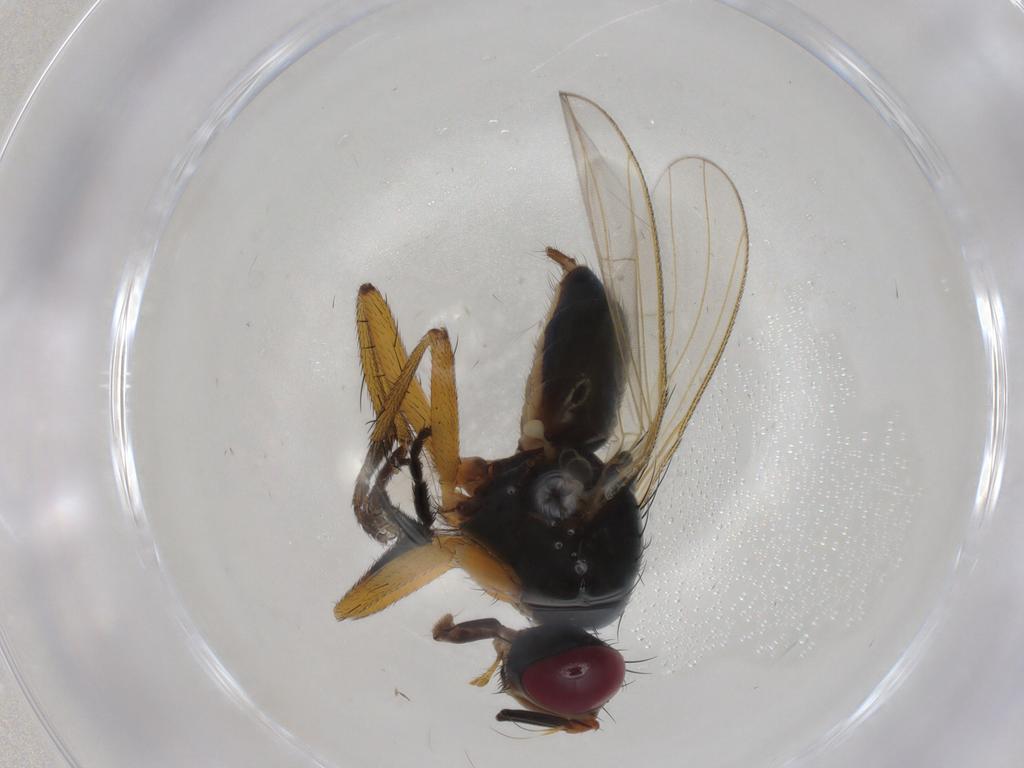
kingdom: Animalia
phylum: Arthropoda
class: Insecta
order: Diptera
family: Muscidae
